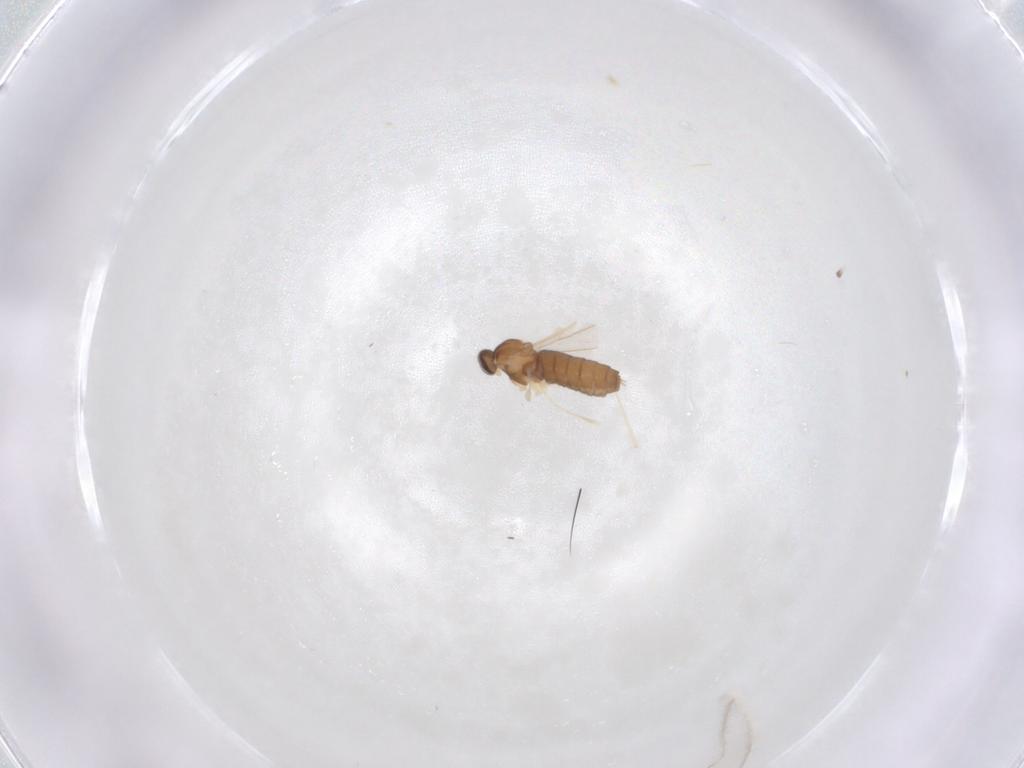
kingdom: Animalia
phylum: Arthropoda
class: Insecta
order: Diptera
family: Cecidomyiidae
